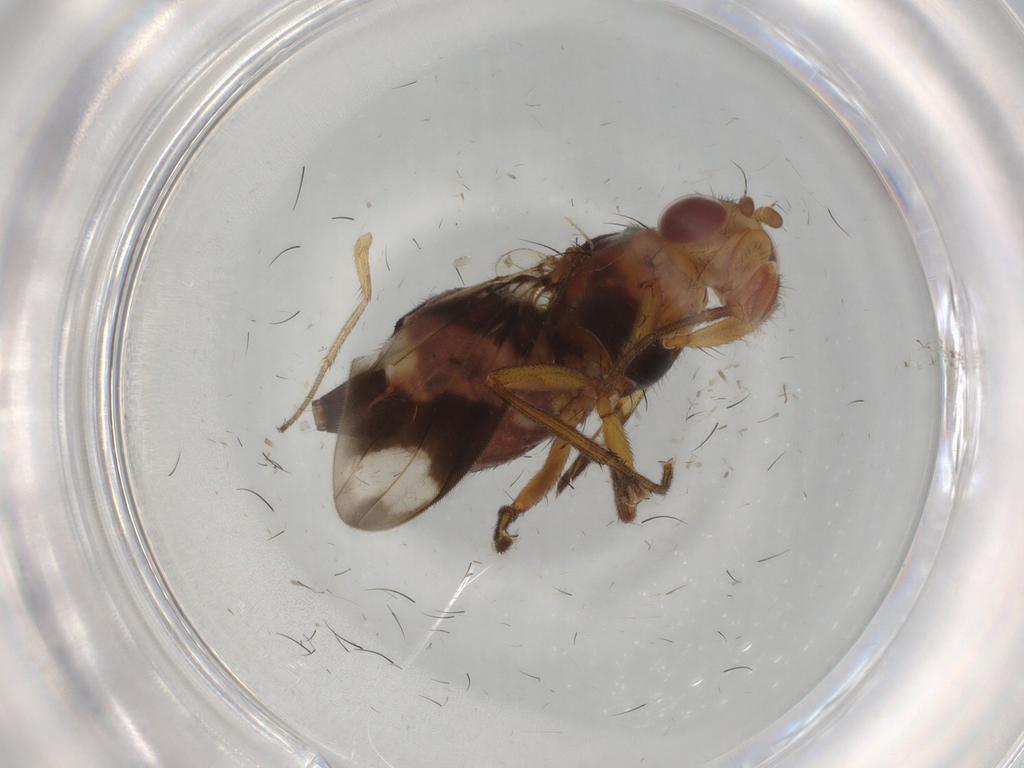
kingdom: Animalia
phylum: Arthropoda
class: Insecta
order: Diptera
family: Richardiidae
